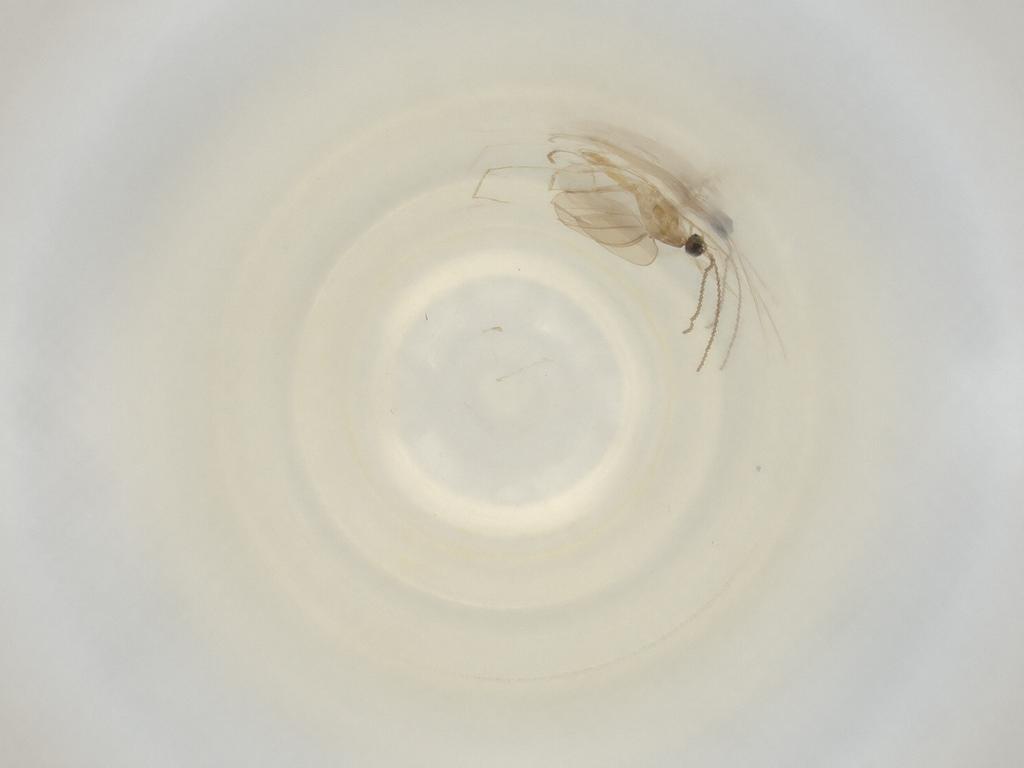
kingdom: Animalia
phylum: Arthropoda
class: Insecta
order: Diptera
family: Cecidomyiidae
